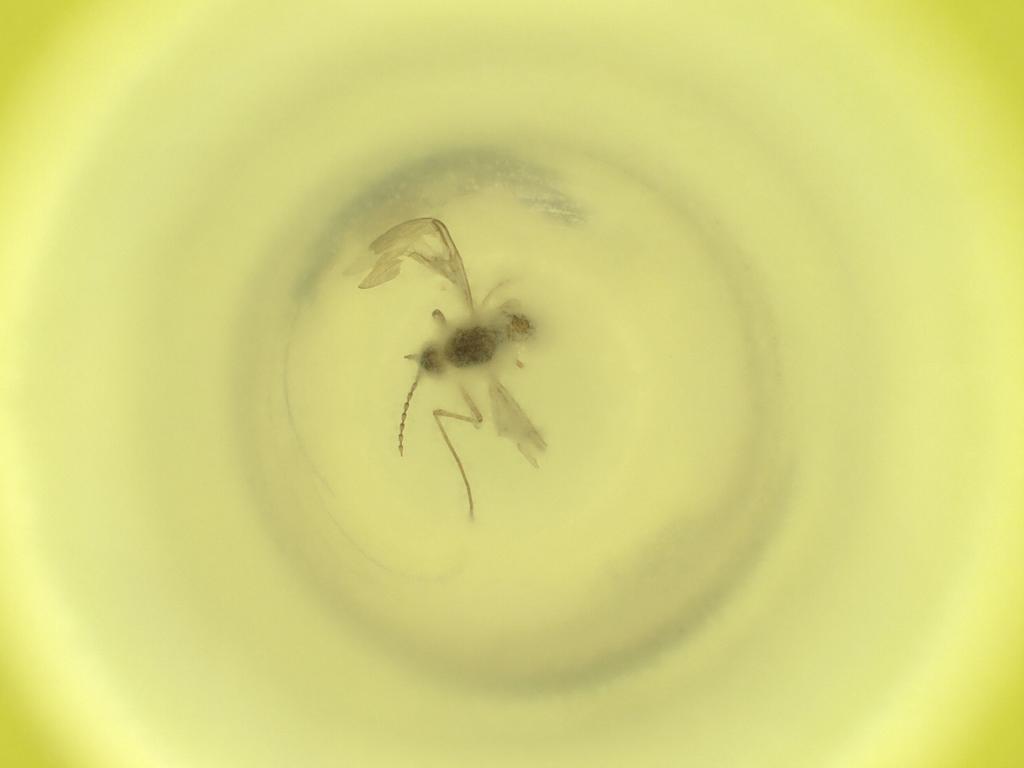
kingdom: Animalia
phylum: Arthropoda
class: Insecta
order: Diptera
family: Cecidomyiidae
